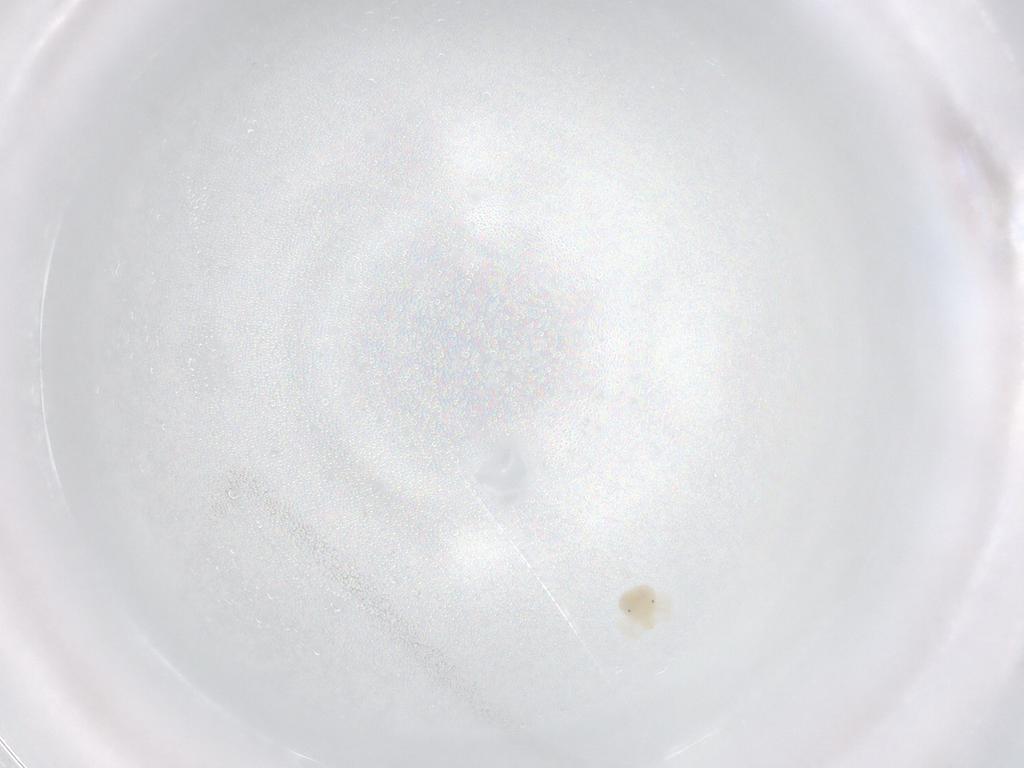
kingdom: Animalia
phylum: Arthropoda
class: Arachnida
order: Trombidiformes
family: Anystidae
